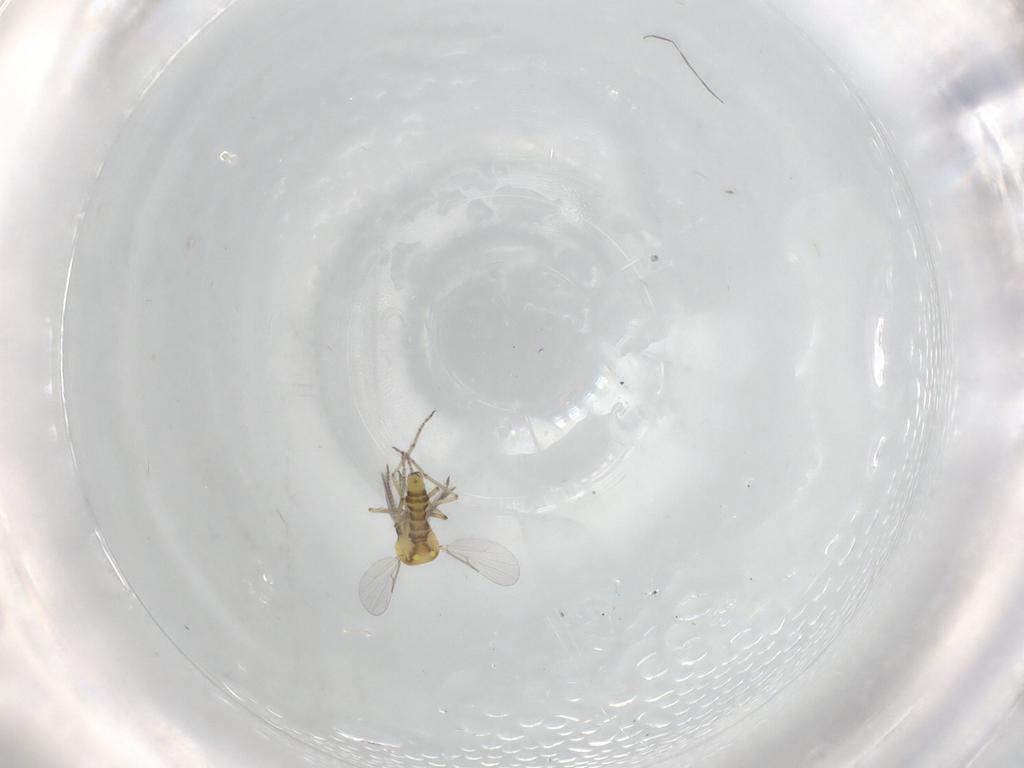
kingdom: Animalia
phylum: Arthropoda
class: Insecta
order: Diptera
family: Ceratopogonidae
